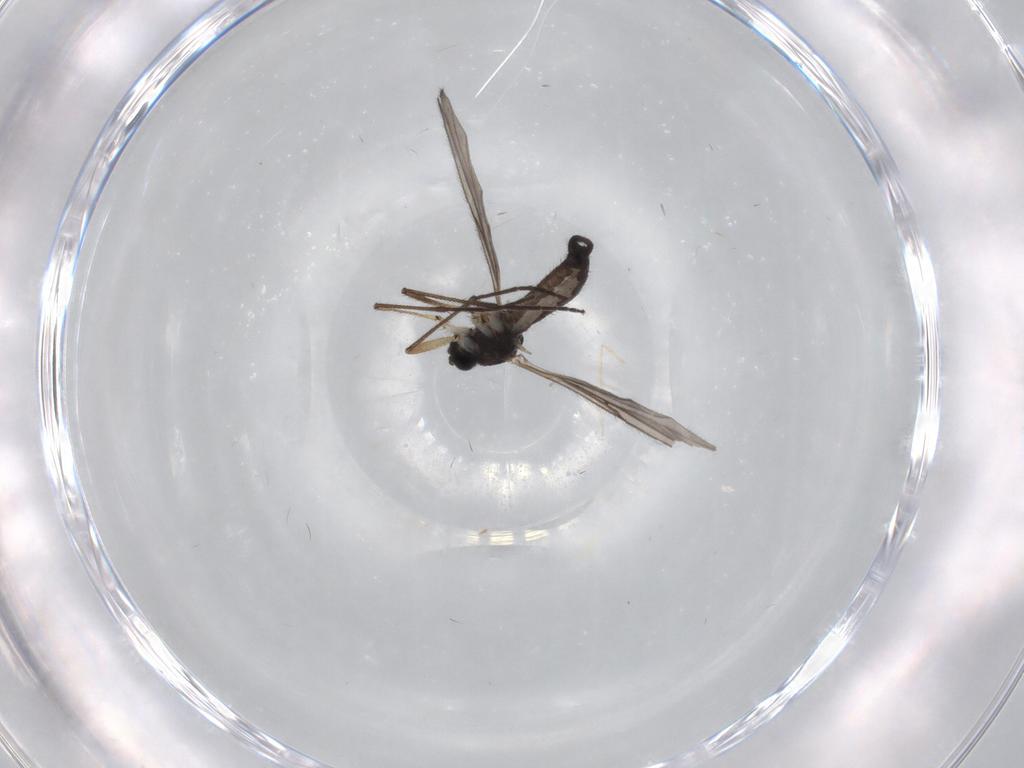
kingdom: Animalia
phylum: Arthropoda
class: Insecta
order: Diptera
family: Sciaridae
